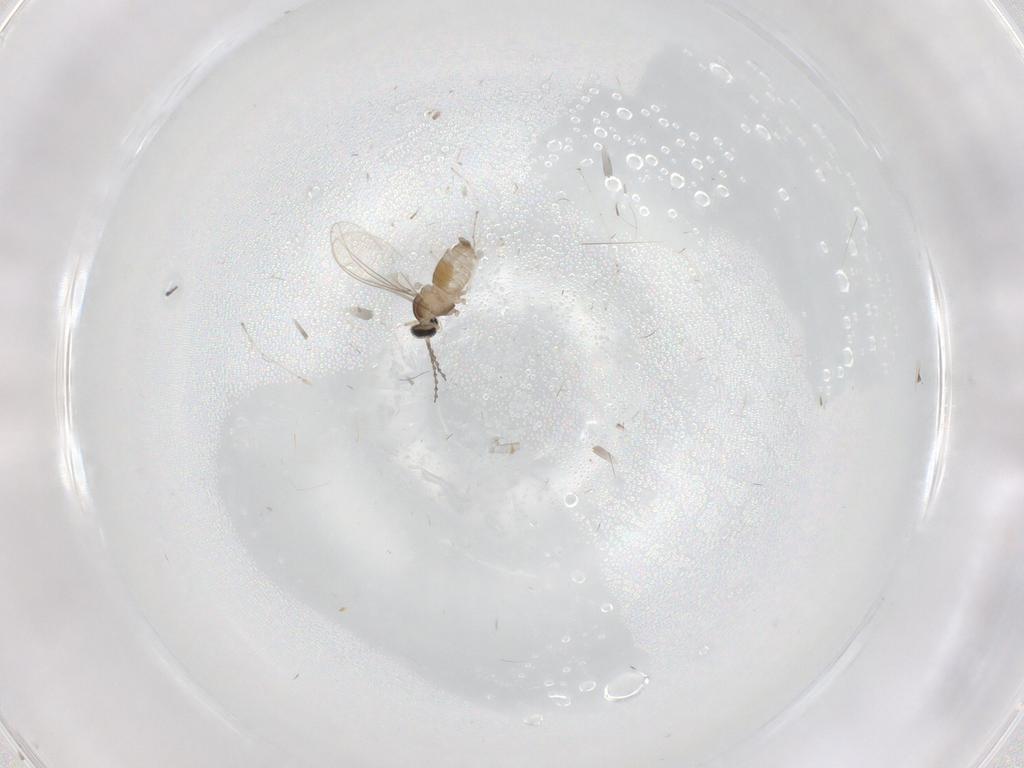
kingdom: Animalia
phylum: Arthropoda
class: Insecta
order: Diptera
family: Cecidomyiidae
